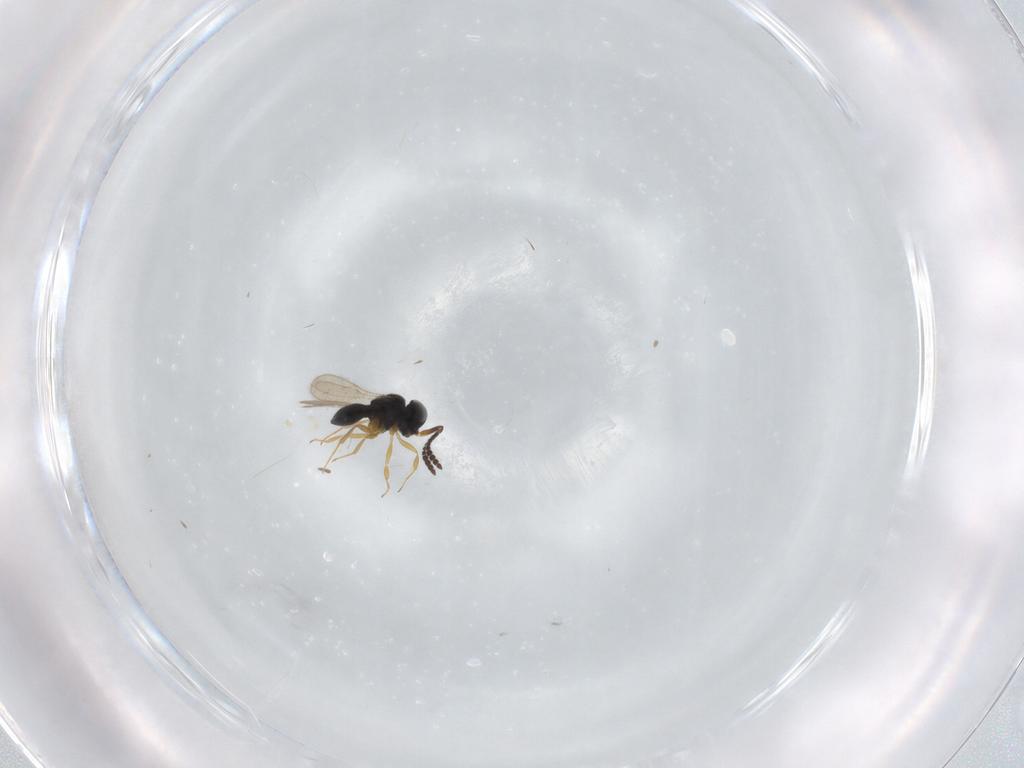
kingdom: Animalia
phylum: Arthropoda
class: Insecta
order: Hymenoptera
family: Scelionidae
